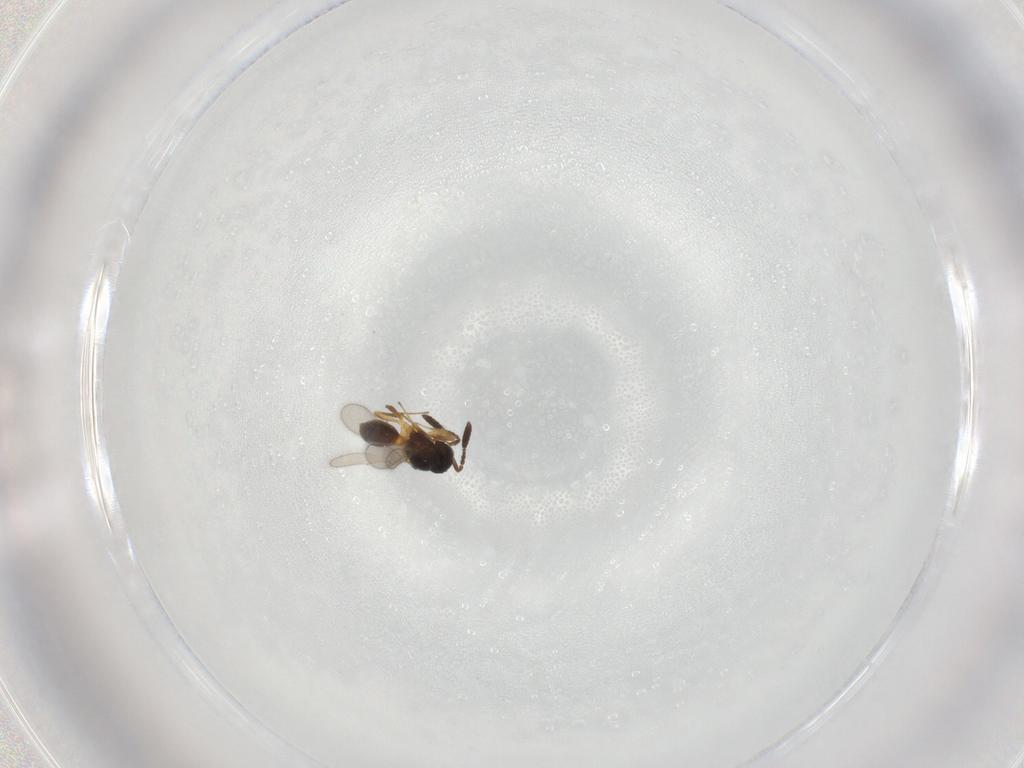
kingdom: Animalia
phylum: Arthropoda
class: Insecta
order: Hymenoptera
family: Scelionidae
